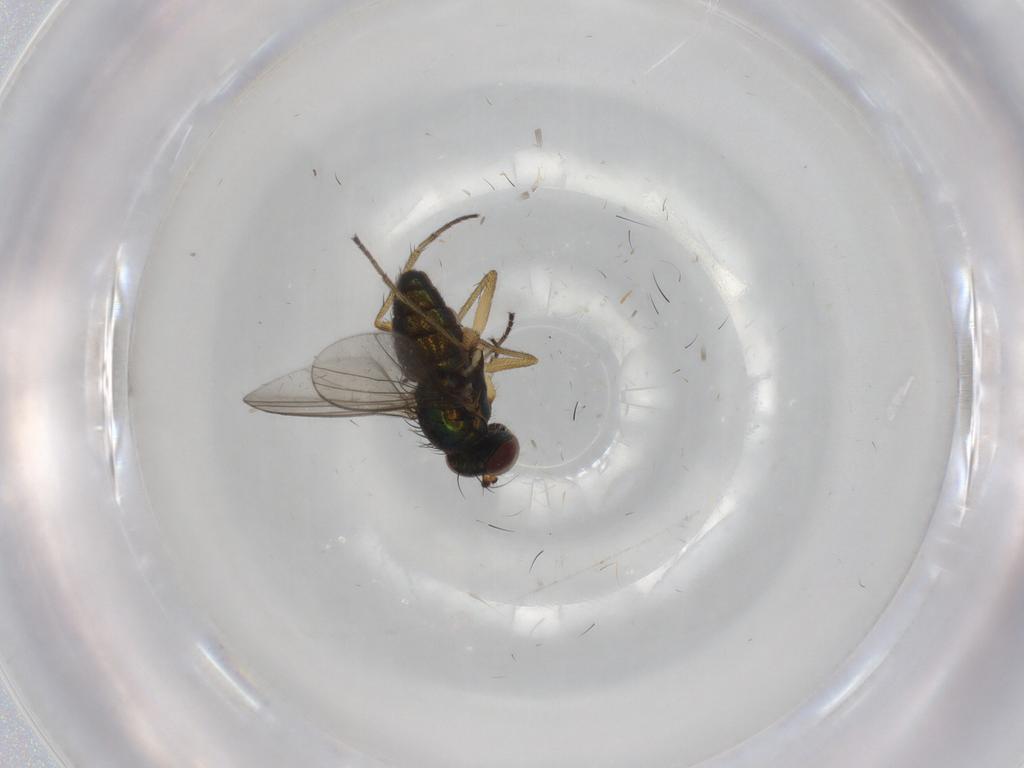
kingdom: Animalia
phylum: Arthropoda
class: Insecta
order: Diptera
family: Limoniidae
